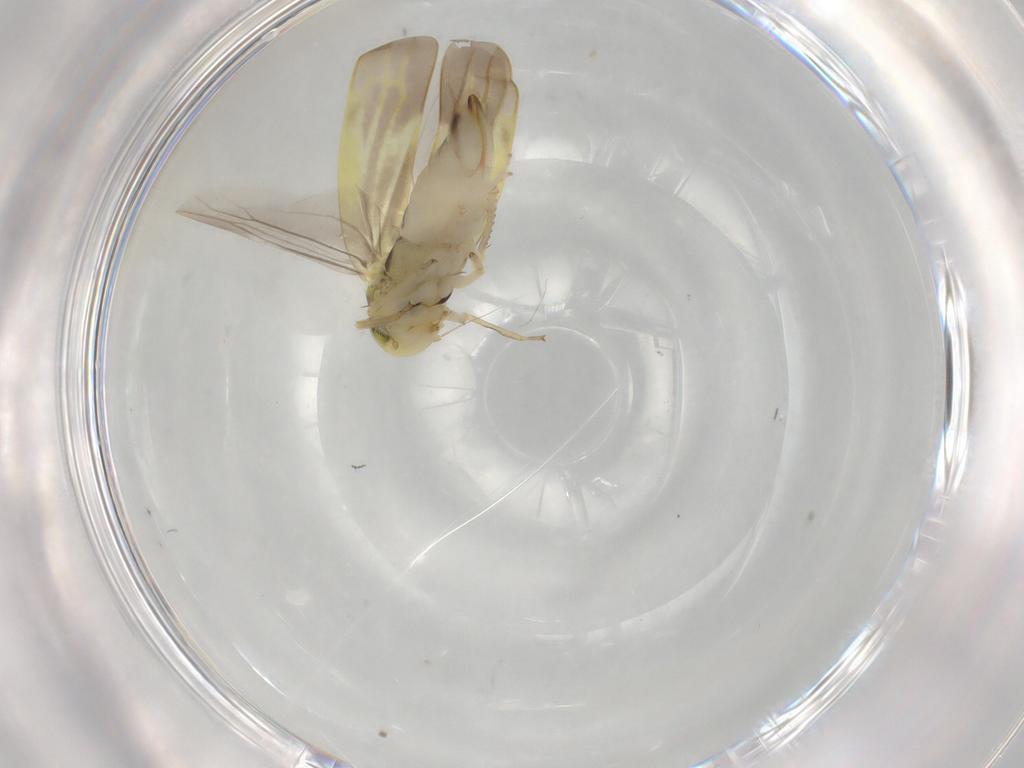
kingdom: Animalia
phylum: Arthropoda
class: Insecta
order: Hemiptera
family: Cicadellidae
